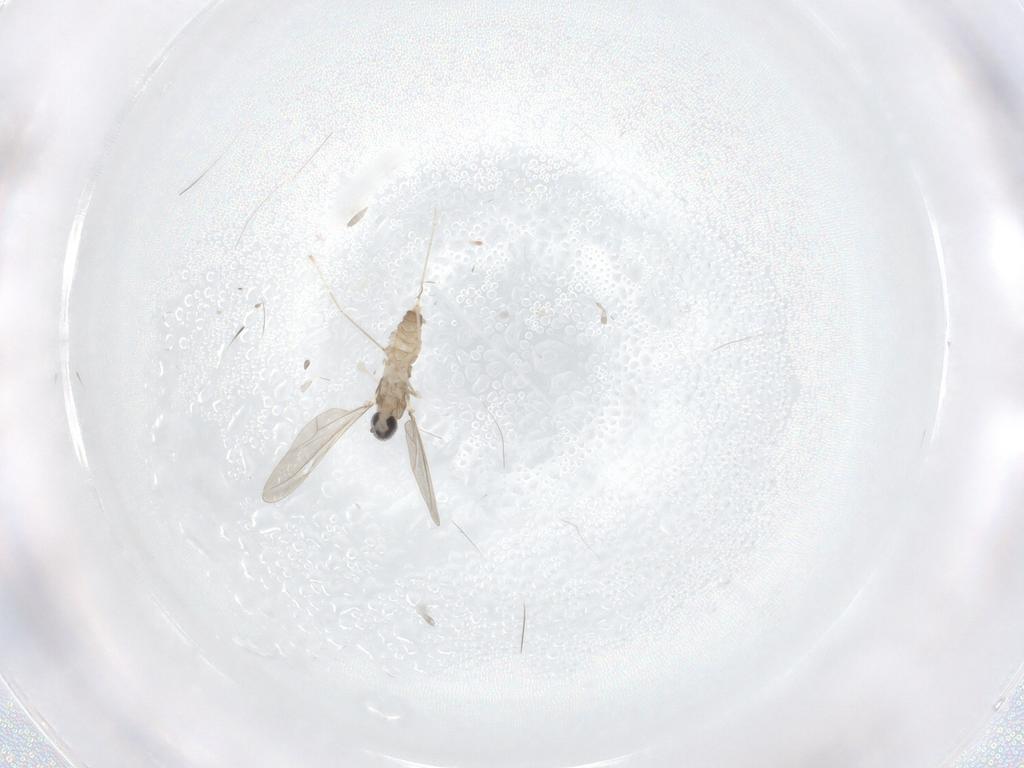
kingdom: Animalia
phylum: Arthropoda
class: Insecta
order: Diptera
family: Cecidomyiidae
